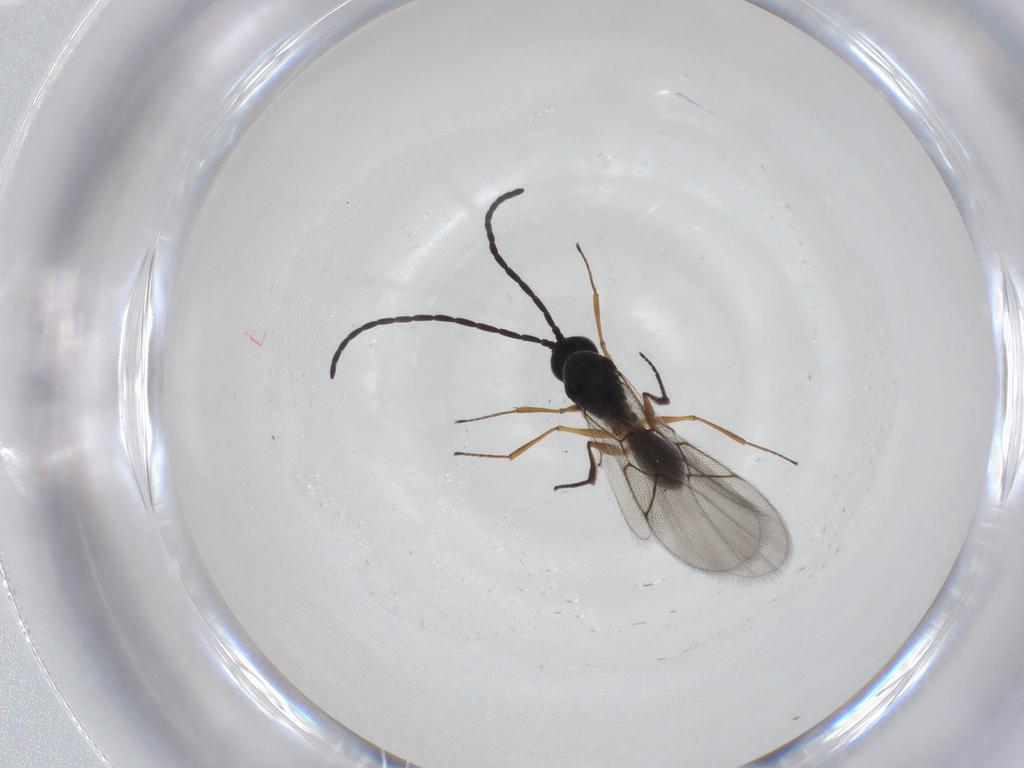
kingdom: Animalia
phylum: Arthropoda
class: Insecta
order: Hymenoptera
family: Figitidae
